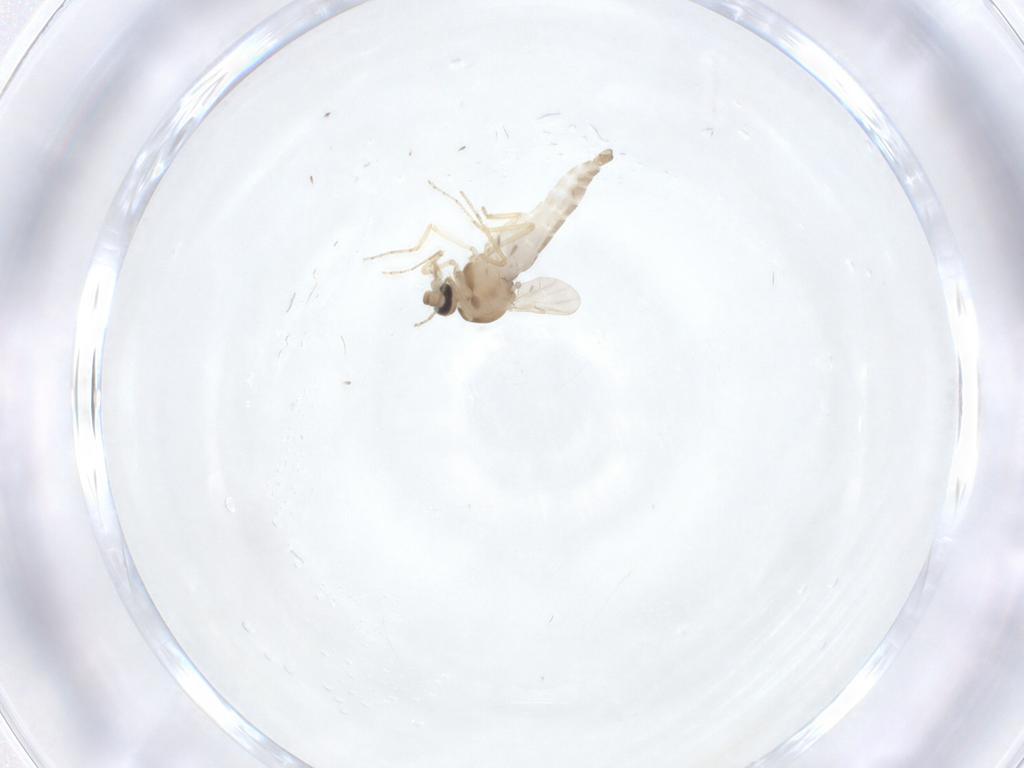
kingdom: Animalia
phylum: Arthropoda
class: Insecta
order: Diptera
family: Ceratopogonidae
